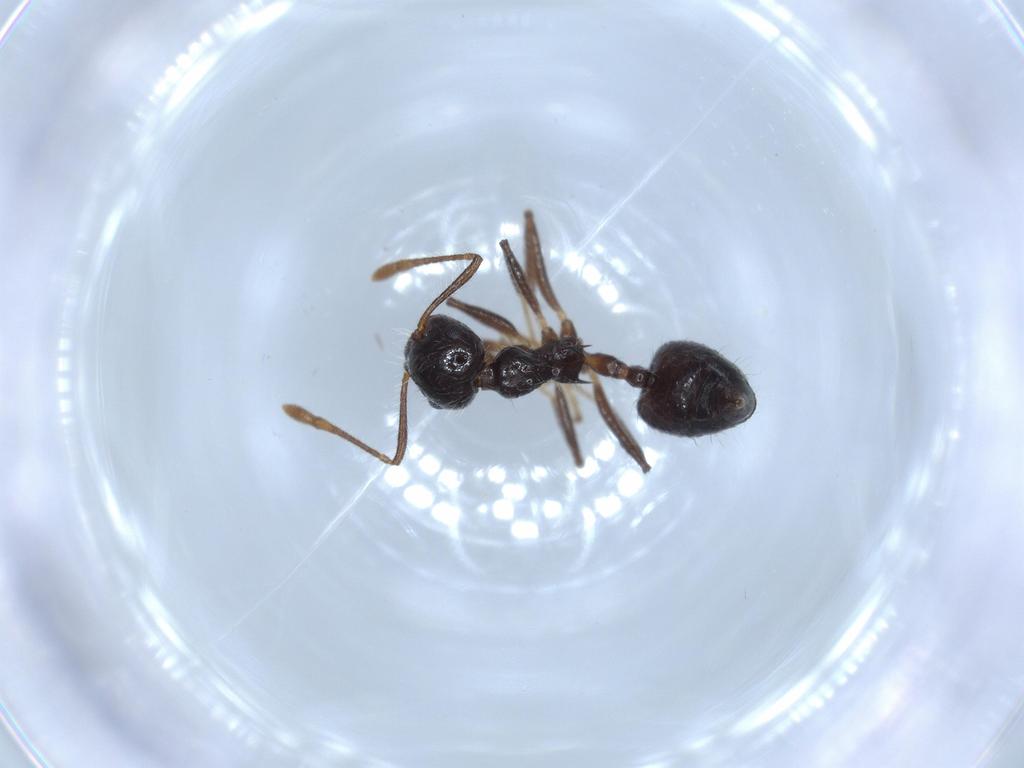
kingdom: Animalia
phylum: Arthropoda
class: Insecta
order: Hymenoptera
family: Formicidae
